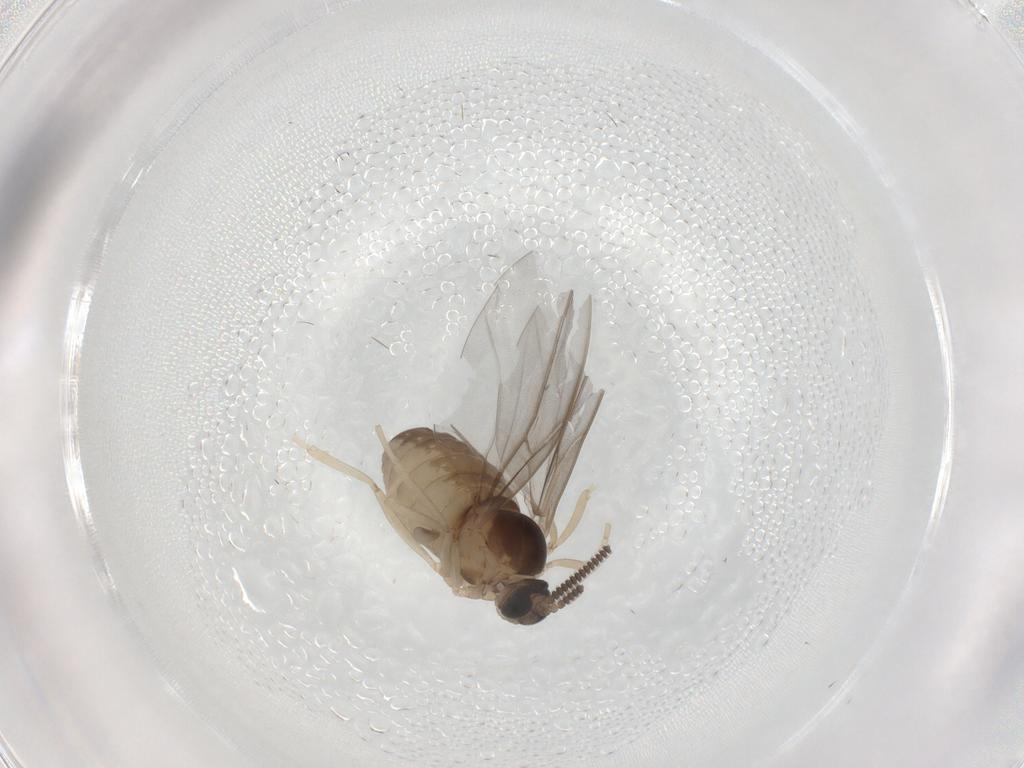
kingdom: Animalia
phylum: Arthropoda
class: Insecta
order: Diptera
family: Cecidomyiidae
